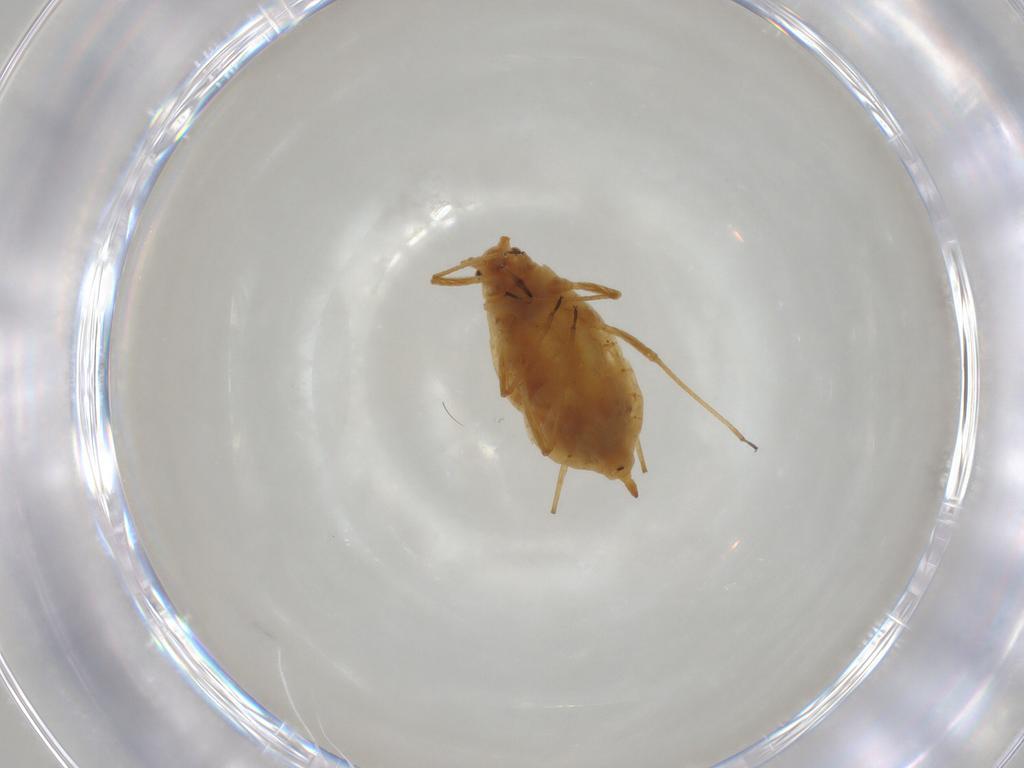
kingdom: Animalia
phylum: Arthropoda
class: Insecta
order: Hemiptera
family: Aphididae
